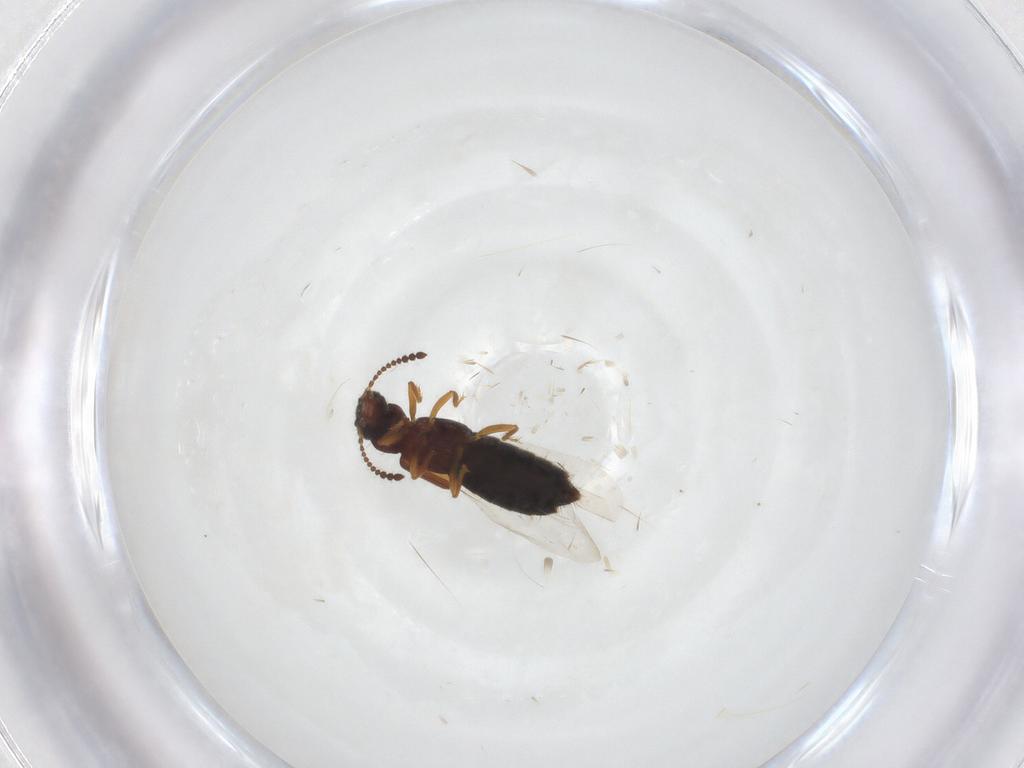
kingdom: Animalia
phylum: Arthropoda
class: Insecta
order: Coleoptera
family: Staphylinidae
